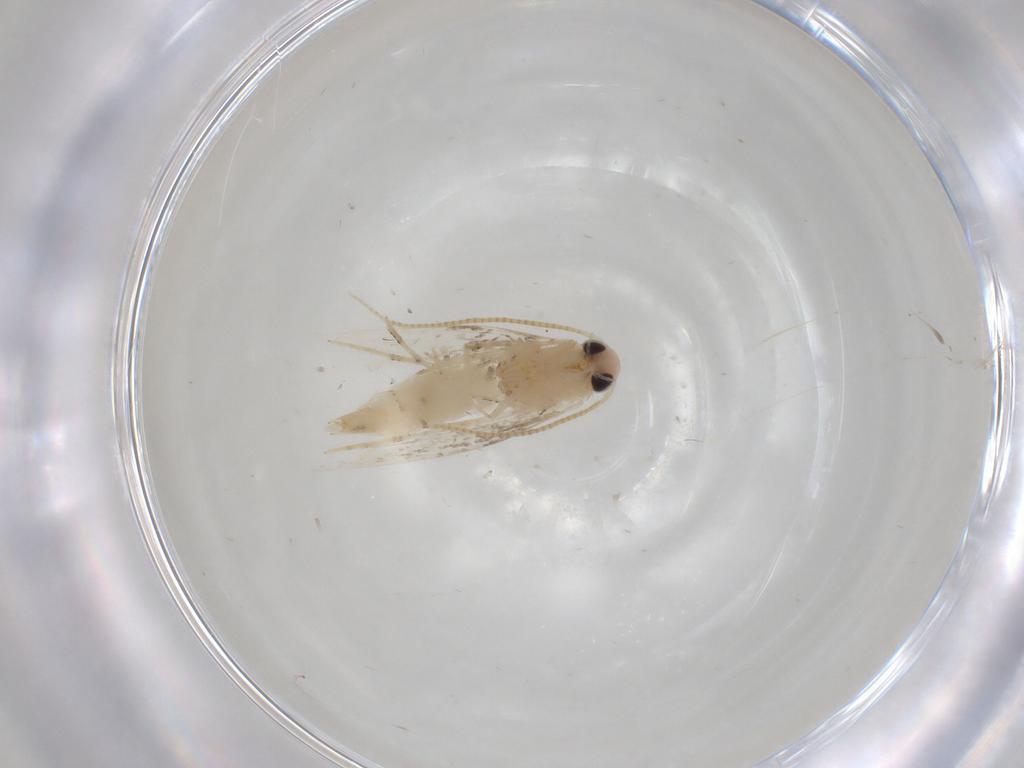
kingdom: Animalia
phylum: Arthropoda
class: Insecta
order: Lepidoptera
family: Gracillariidae
